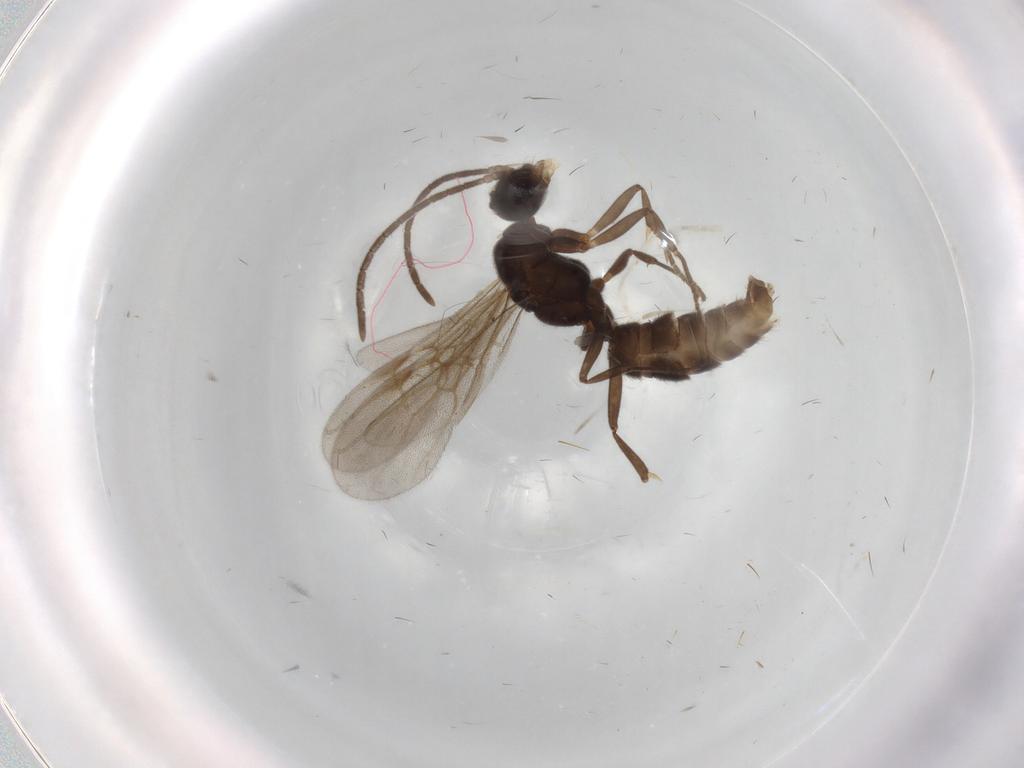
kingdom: Animalia
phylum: Arthropoda
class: Insecta
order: Hymenoptera
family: Formicidae
